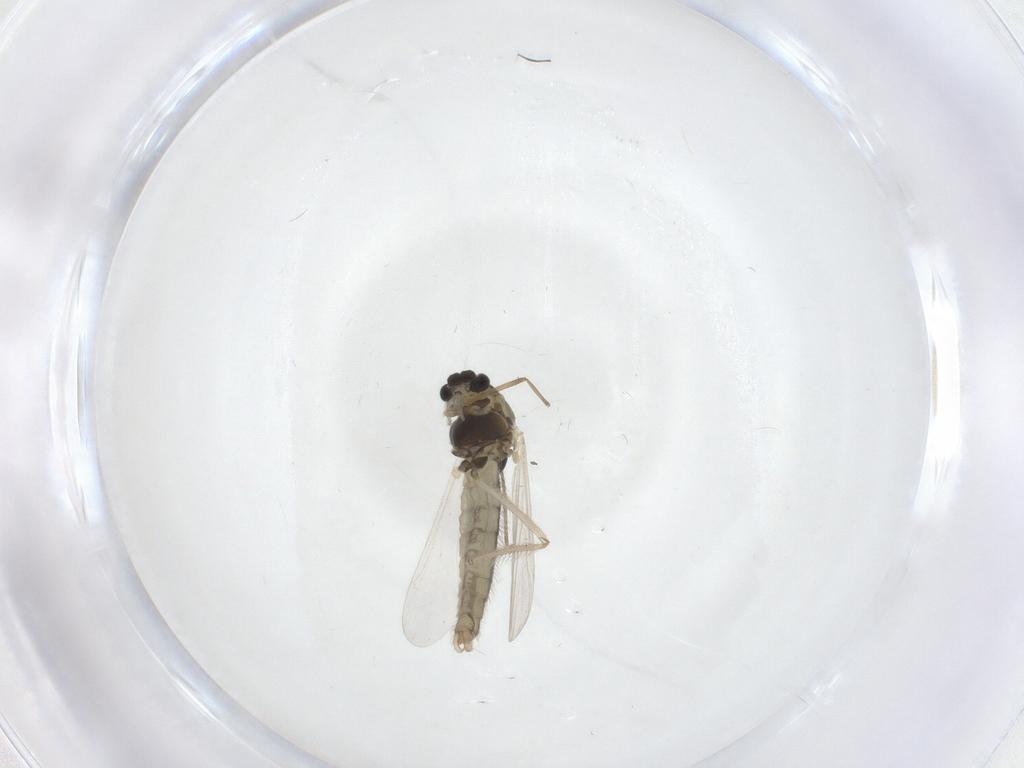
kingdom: Animalia
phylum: Arthropoda
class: Insecta
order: Diptera
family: Chironomidae
